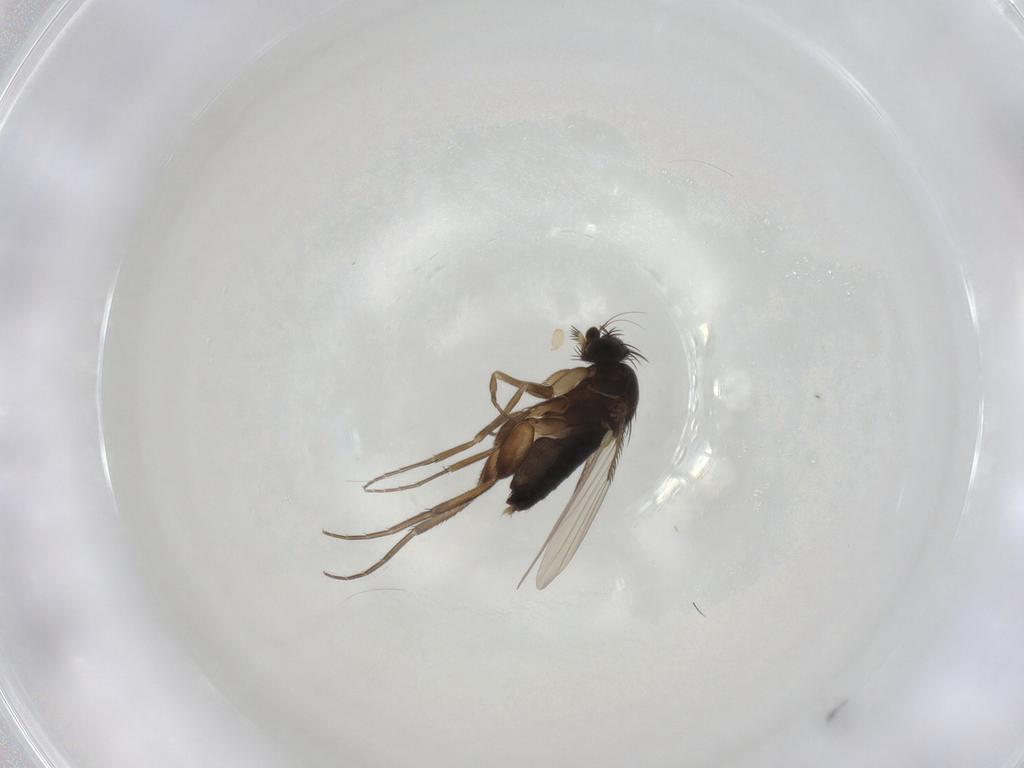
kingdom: Animalia
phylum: Arthropoda
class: Insecta
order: Diptera
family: Chironomidae
